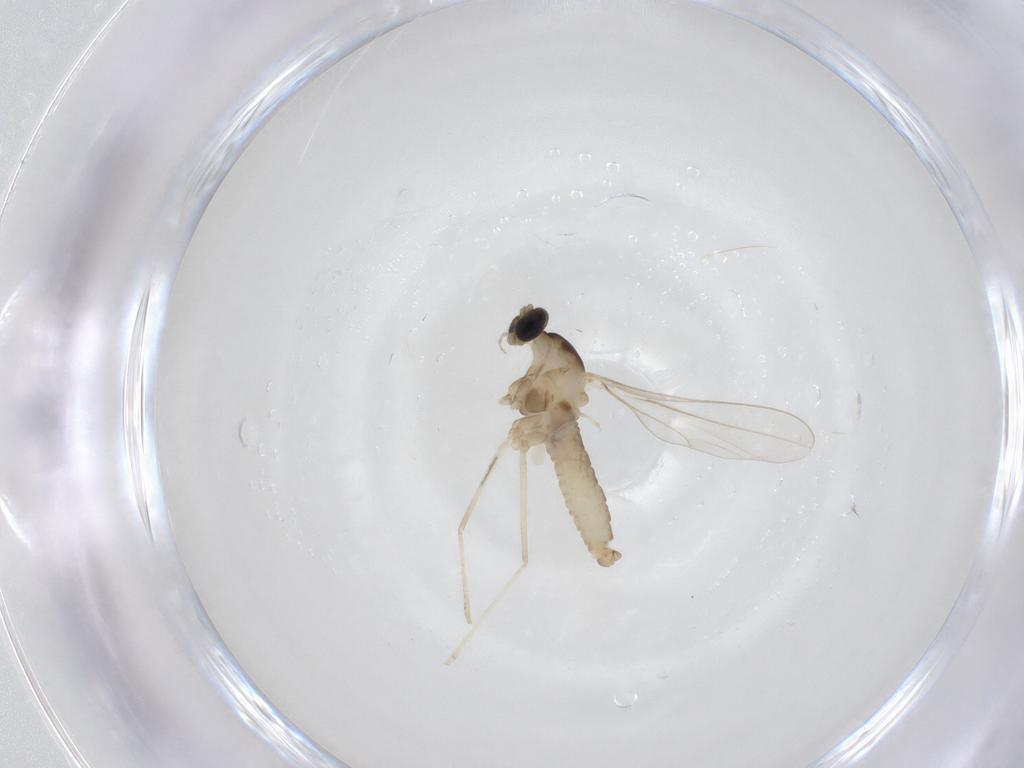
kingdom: Animalia
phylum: Arthropoda
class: Insecta
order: Diptera
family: Cecidomyiidae
